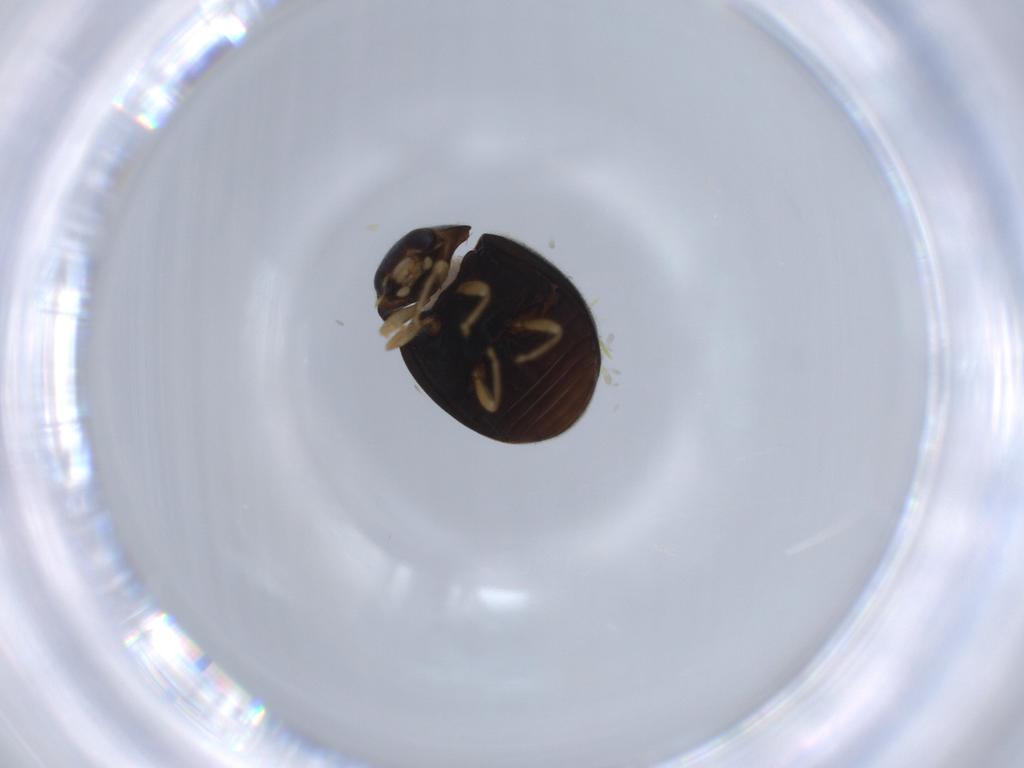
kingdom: Animalia
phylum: Arthropoda
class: Insecta
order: Coleoptera
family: Coccinellidae
